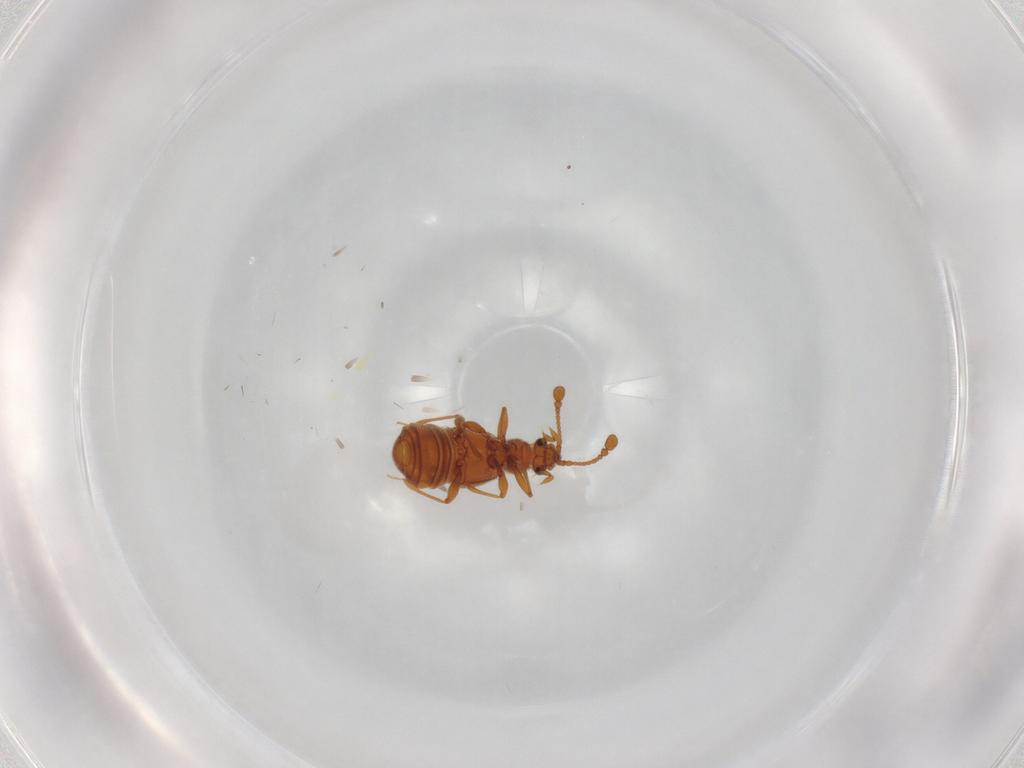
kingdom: Animalia
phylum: Arthropoda
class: Insecta
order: Coleoptera
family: Staphylinidae
